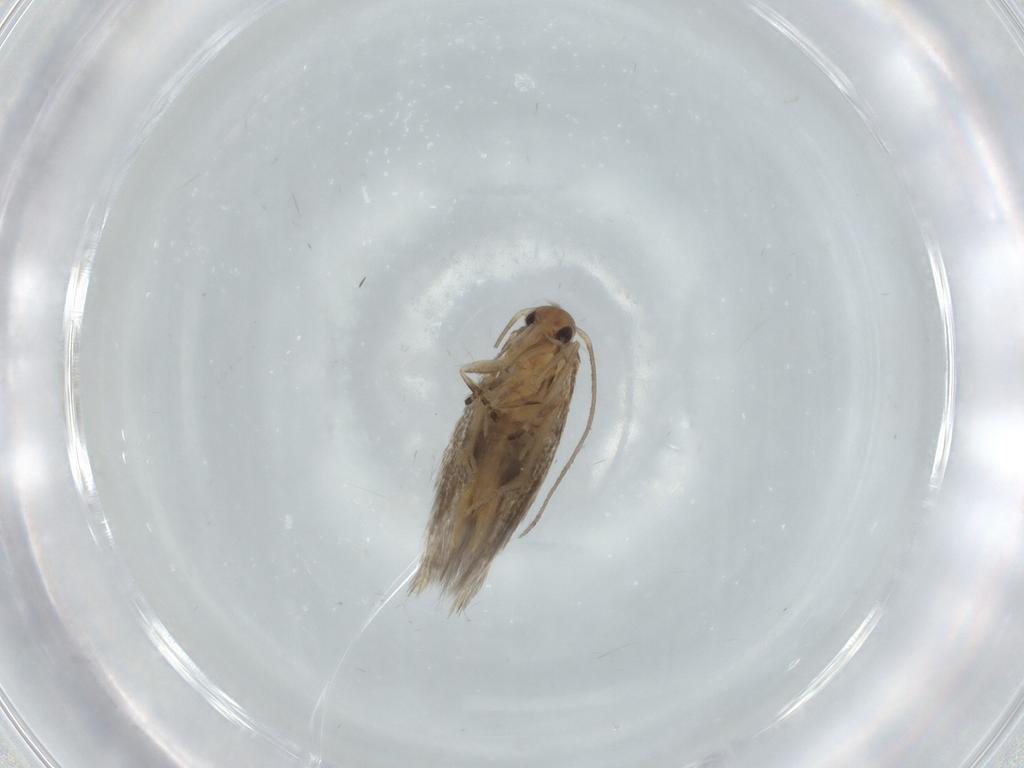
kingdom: Animalia
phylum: Arthropoda
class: Insecta
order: Lepidoptera
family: Elachistidae
